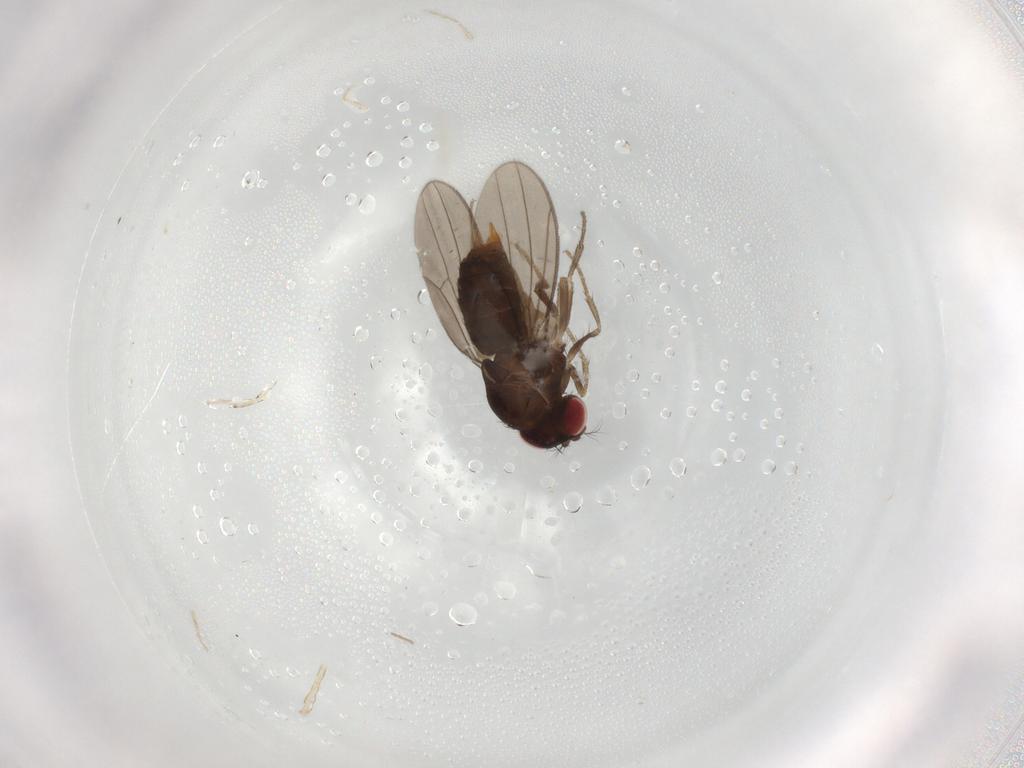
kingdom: Animalia
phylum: Arthropoda
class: Insecta
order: Diptera
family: Drosophilidae
